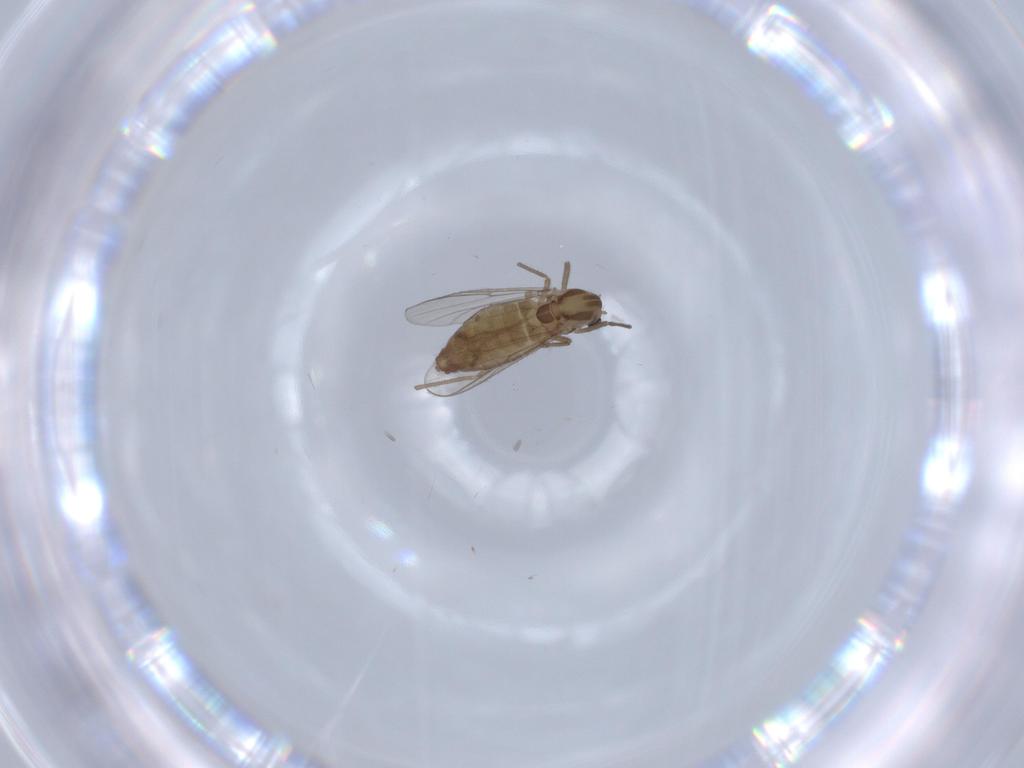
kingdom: Animalia
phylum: Arthropoda
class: Insecta
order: Diptera
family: Chironomidae
